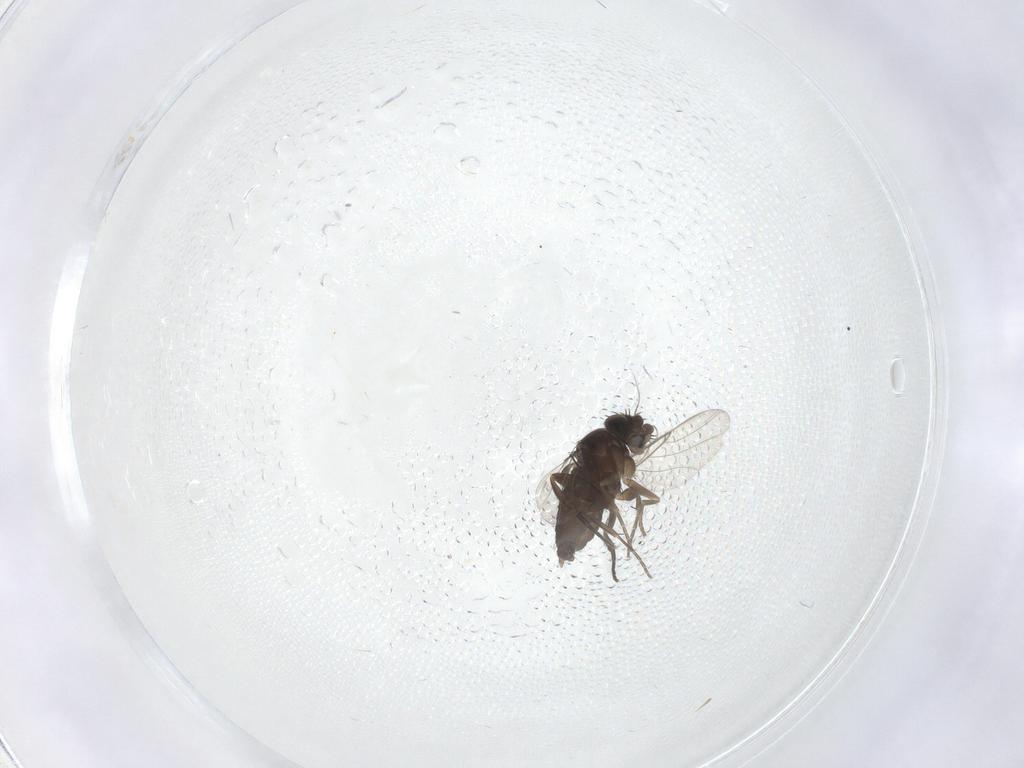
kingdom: Animalia
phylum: Arthropoda
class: Insecta
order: Diptera
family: Phoridae
